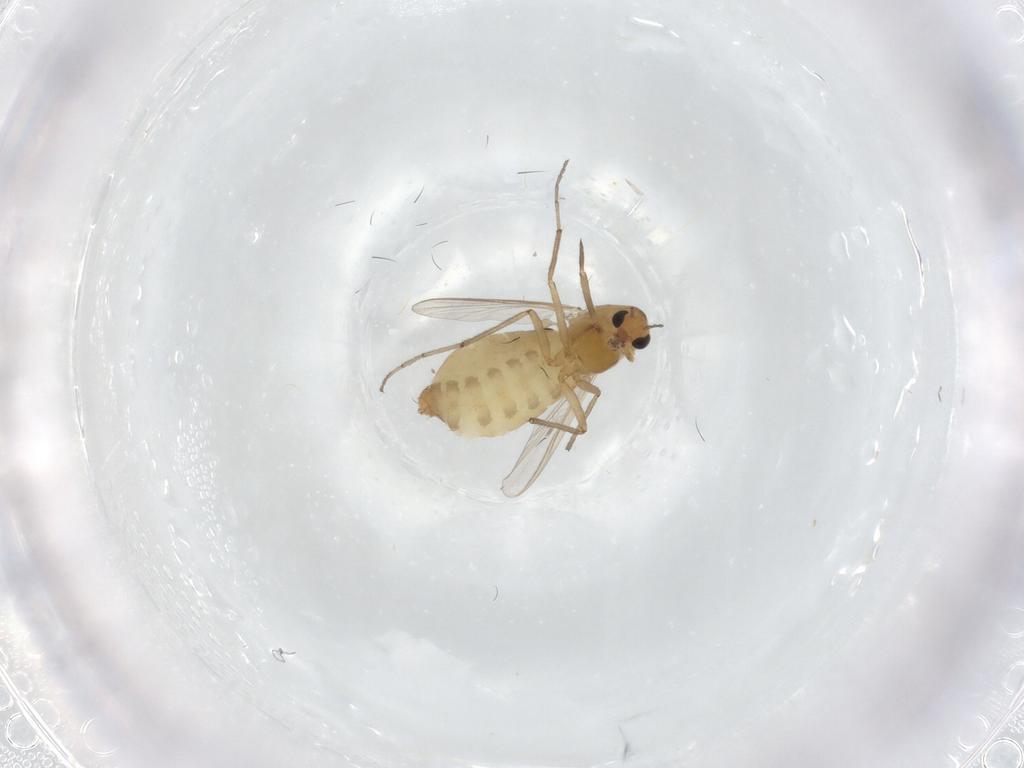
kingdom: Animalia
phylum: Arthropoda
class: Insecta
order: Diptera
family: Chironomidae
